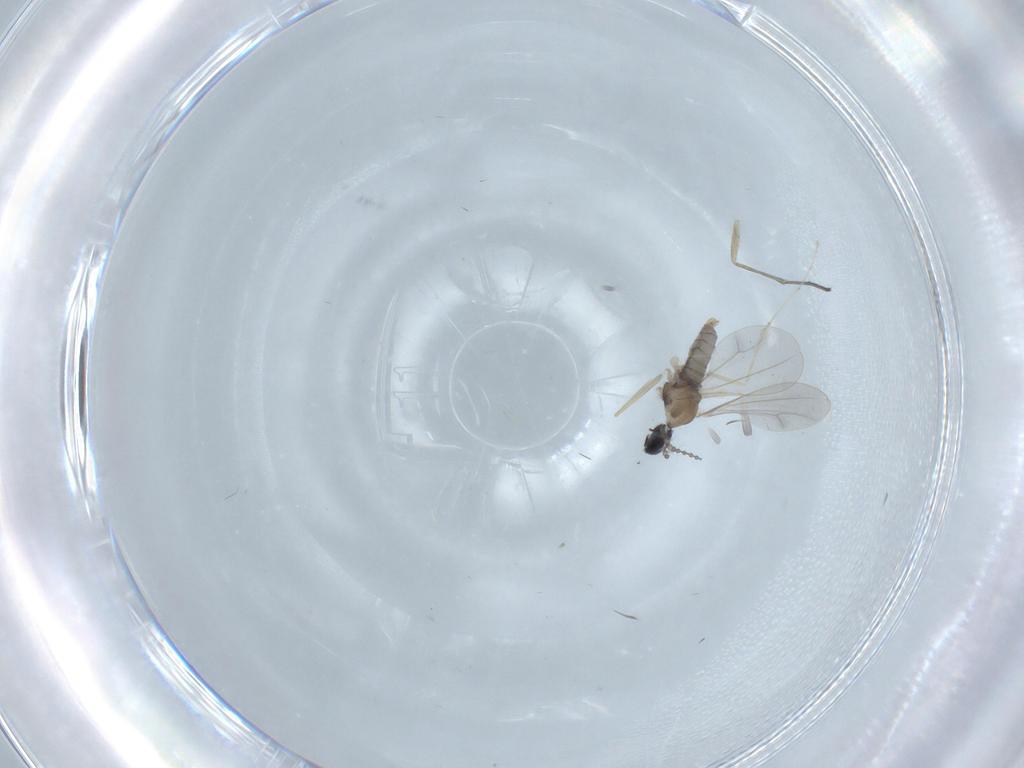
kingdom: Animalia
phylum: Arthropoda
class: Insecta
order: Diptera
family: Cecidomyiidae
